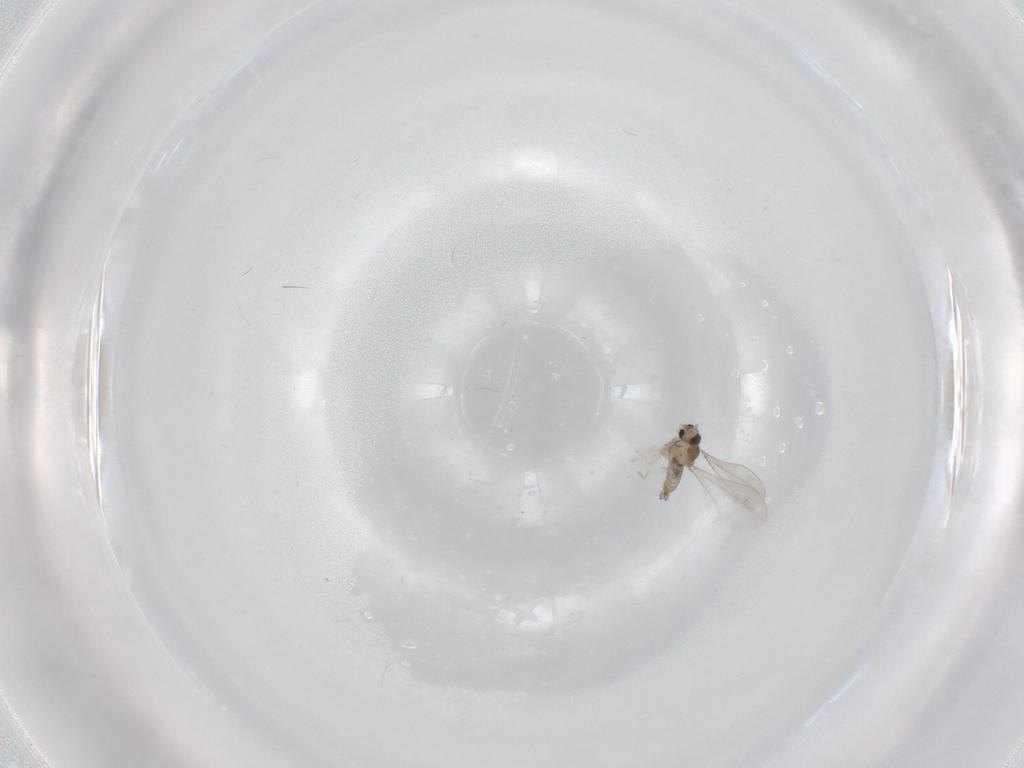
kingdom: Animalia
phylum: Arthropoda
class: Insecta
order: Diptera
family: Cecidomyiidae
